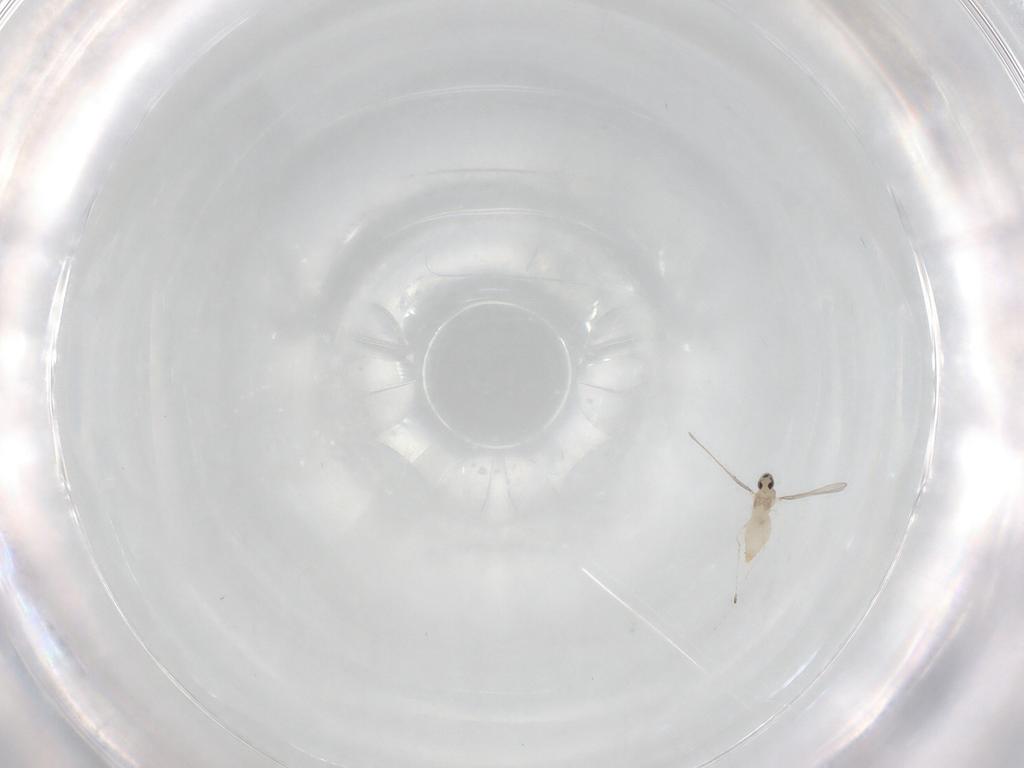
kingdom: Animalia
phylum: Arthropoda
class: Insecta
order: Diptera
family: Cecidomyiidae
